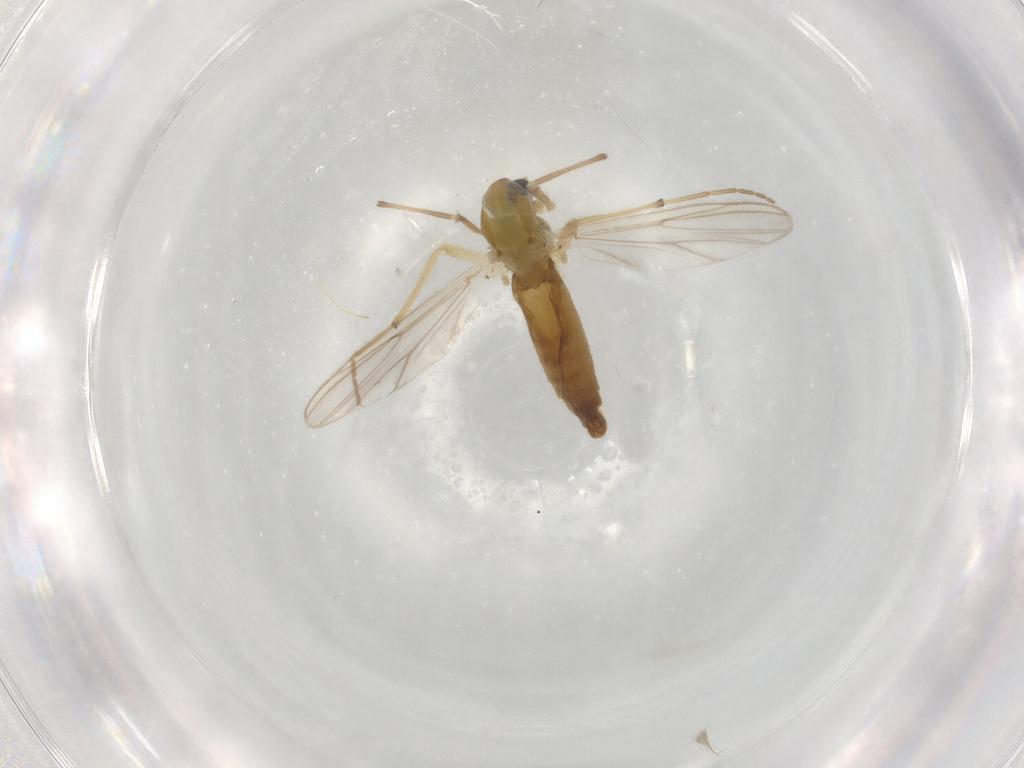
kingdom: Animalia
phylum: Arthropoda
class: Insecta
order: Diptera
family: Chironomidae
